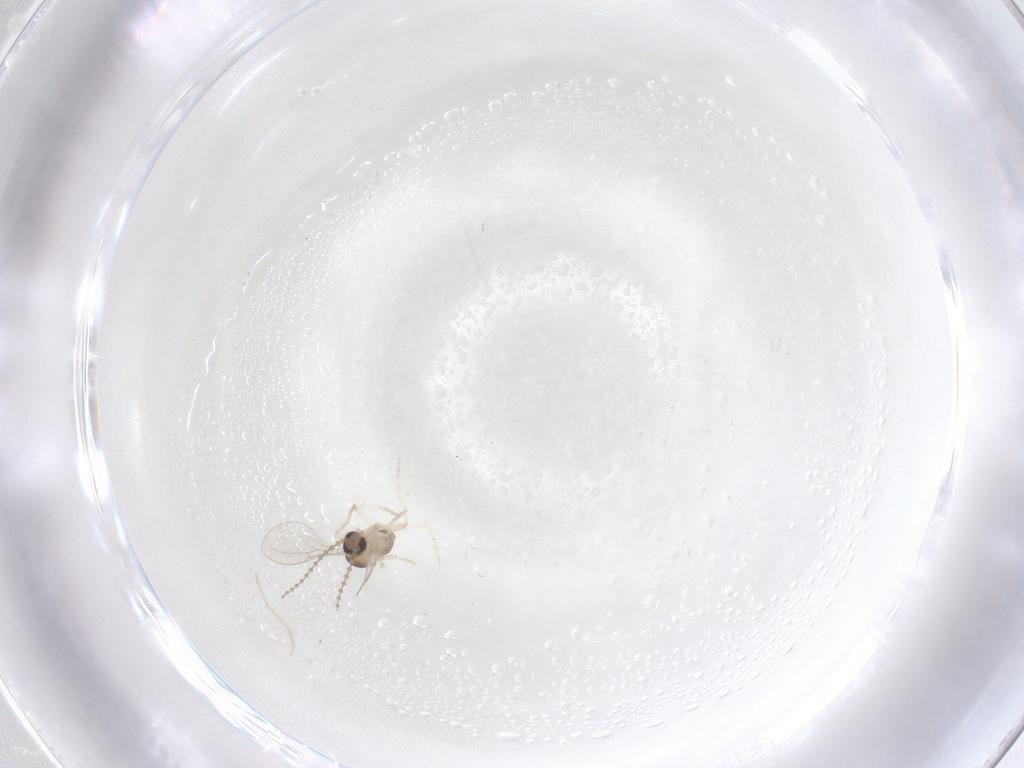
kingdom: Animalia
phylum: Arthropoda
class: Insecta
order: Diptera
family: Cecidomyiidae
